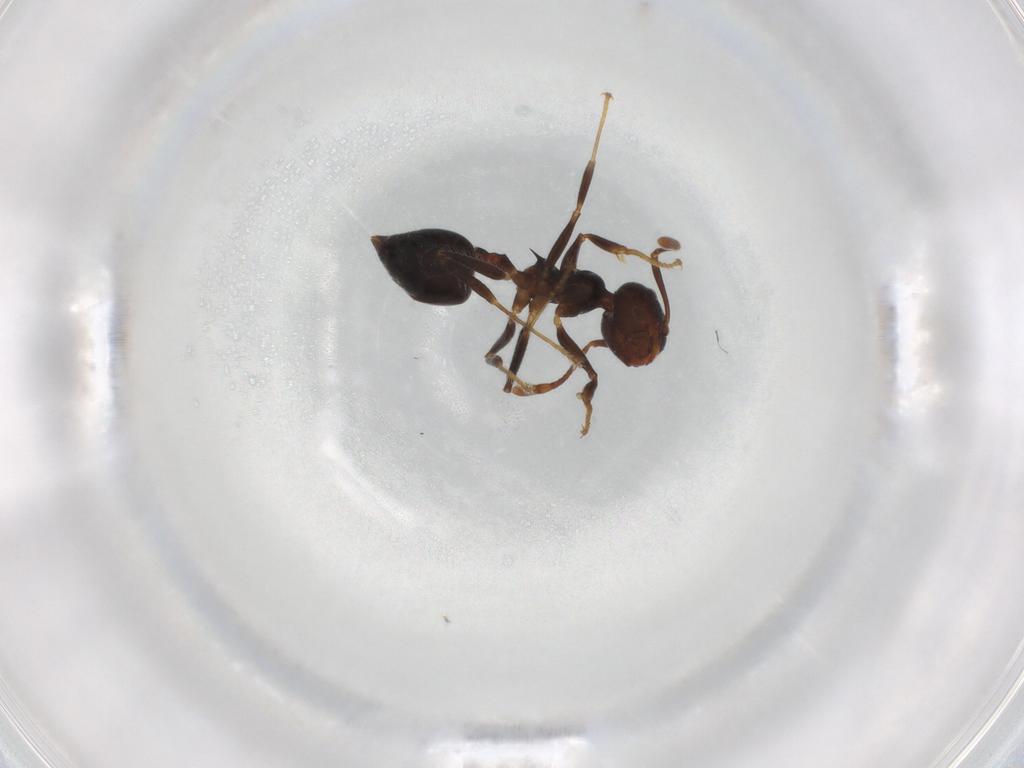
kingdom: Animalia
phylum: Arthropoda
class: Insecta
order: Hymenoptera
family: Formicidae
